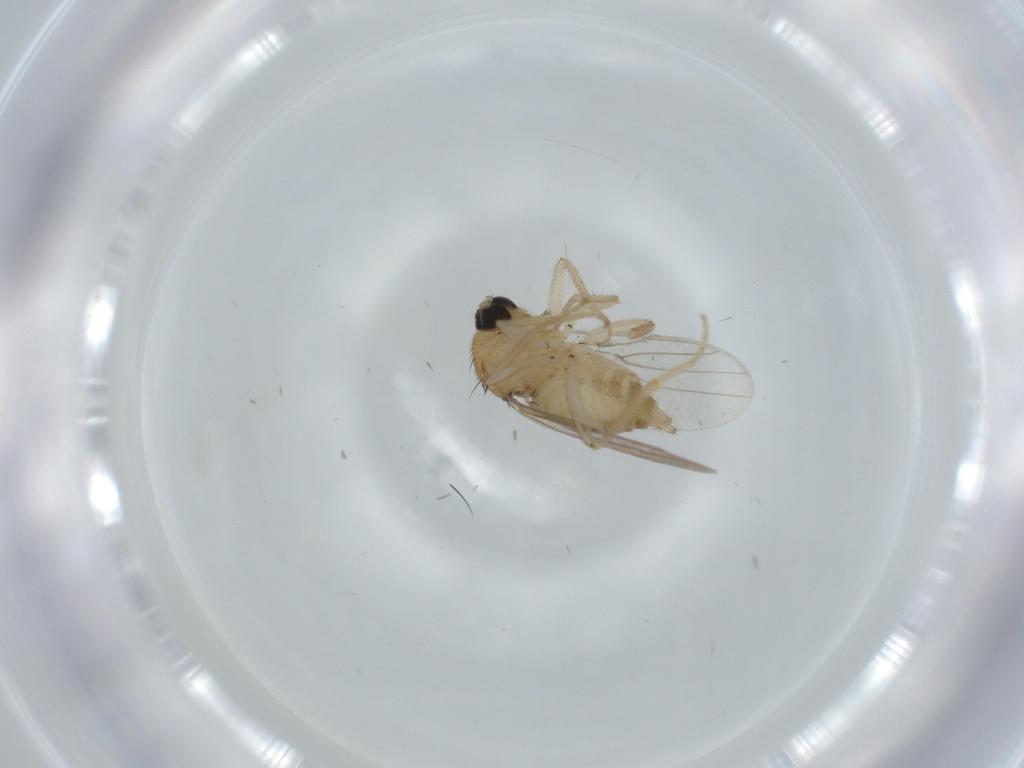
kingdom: Animalia
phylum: Arthropoda
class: Insecta
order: Diptera
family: Hybotidae
